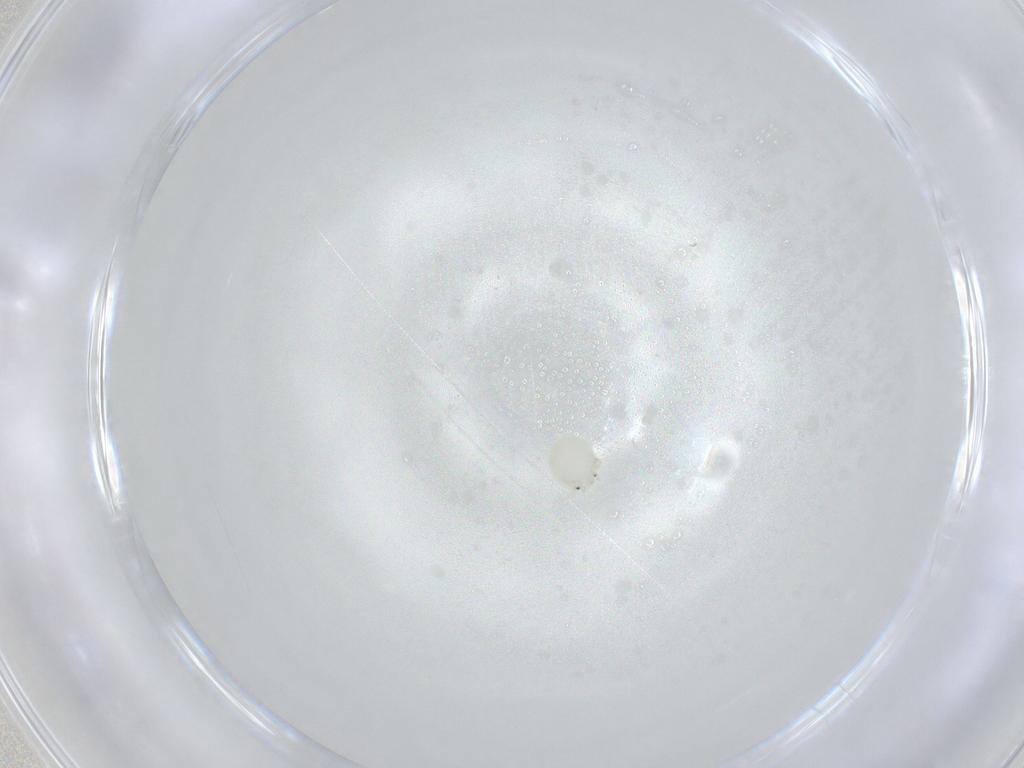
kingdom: Animalia
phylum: Arthropoda
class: Arachnida
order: Trombidiformes
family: Arrenuridae
